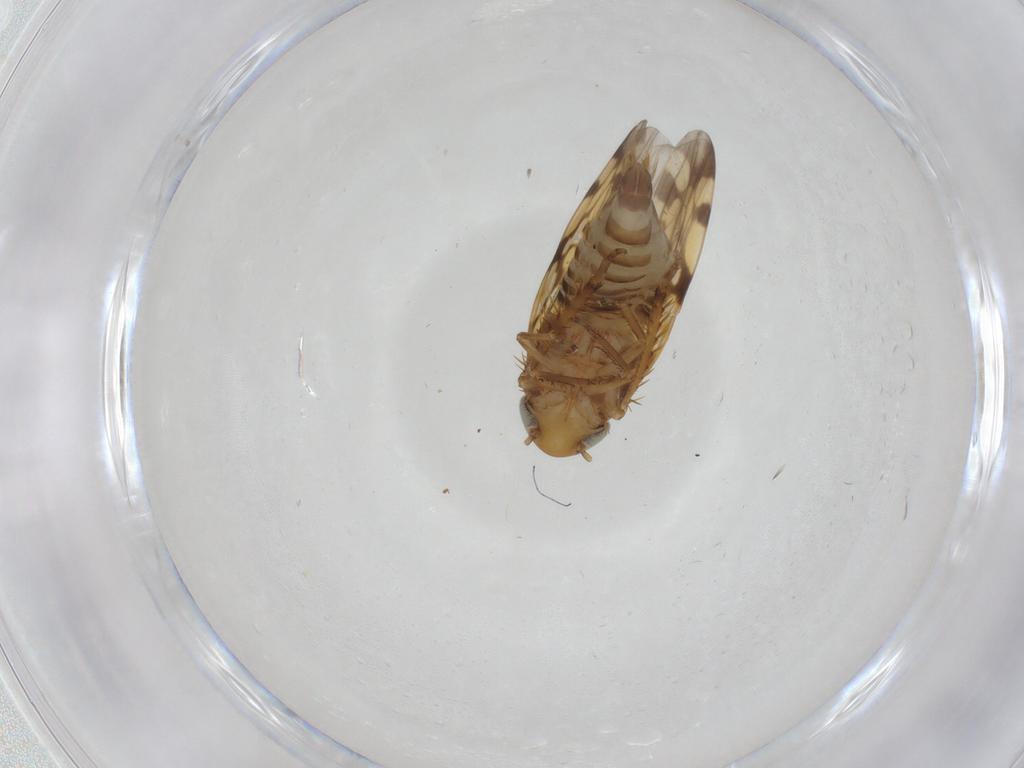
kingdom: Animalia
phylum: Arthropoda
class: Insecta
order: Hemiptera
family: Cicadellidae
